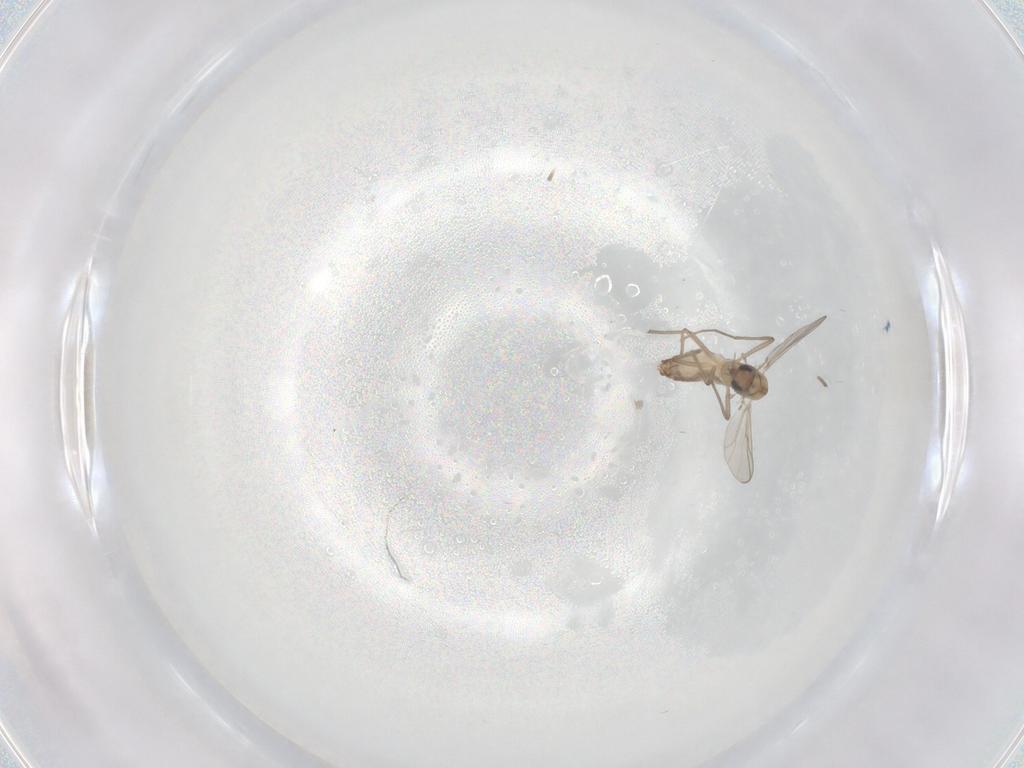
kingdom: Animalia
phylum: Arthropoda
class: Insecta
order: Diptera
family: Chironomidae
